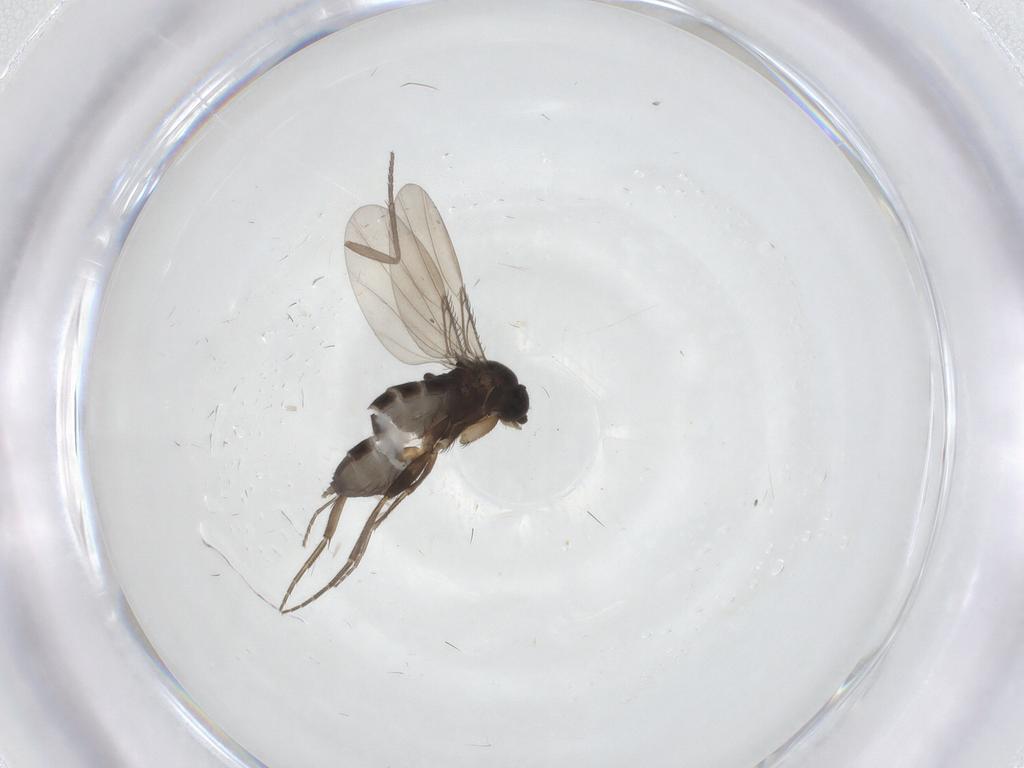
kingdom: Animalia
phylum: Arthropoda
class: Insecta
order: Diptera
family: Phoridae
